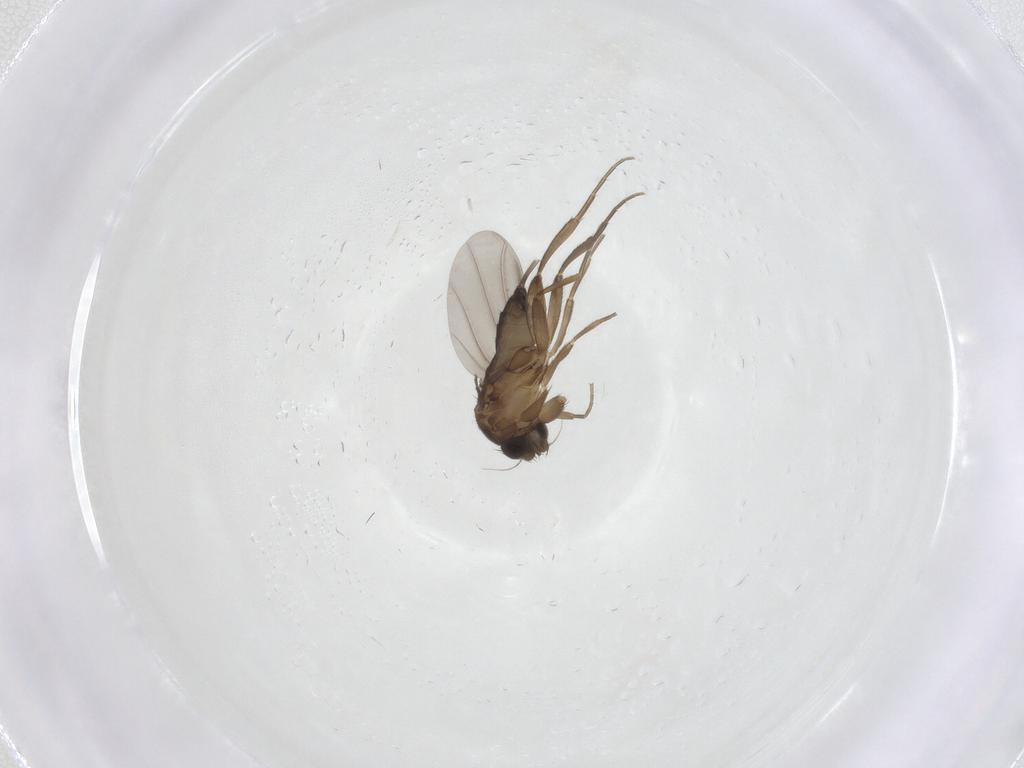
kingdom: Animalia
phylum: Arthropoda
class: Insecta
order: Diptera
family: Phoridae
